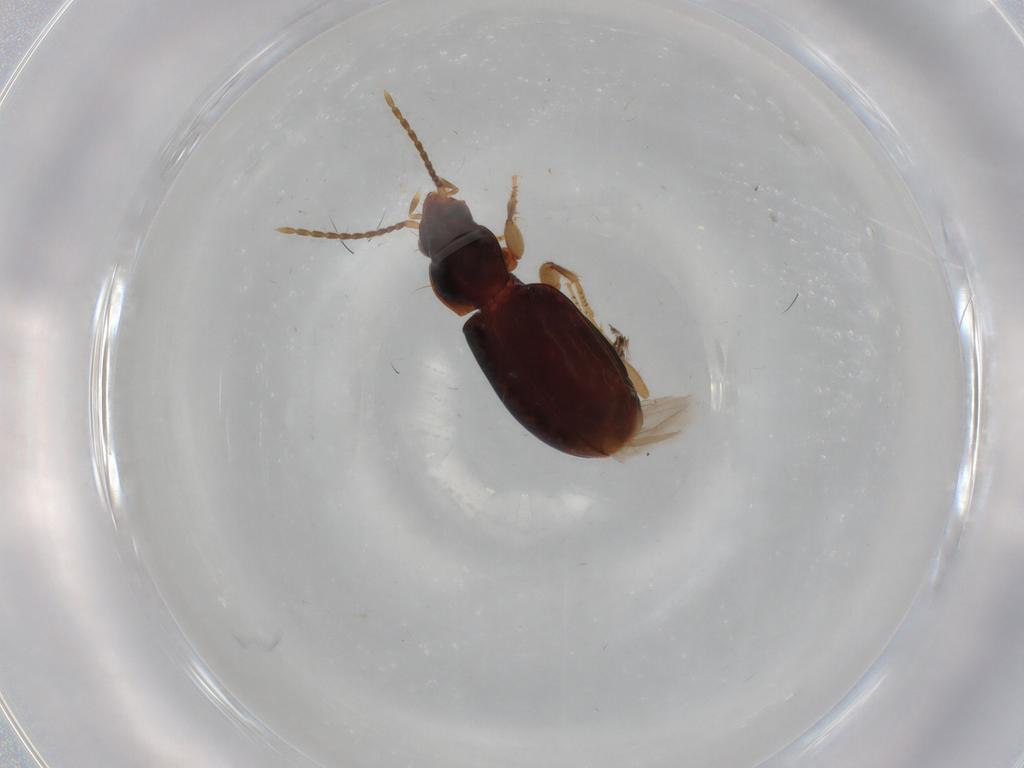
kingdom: Animalia
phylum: Arthropoda
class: Insecta
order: Coleoptera
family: Carabidae
